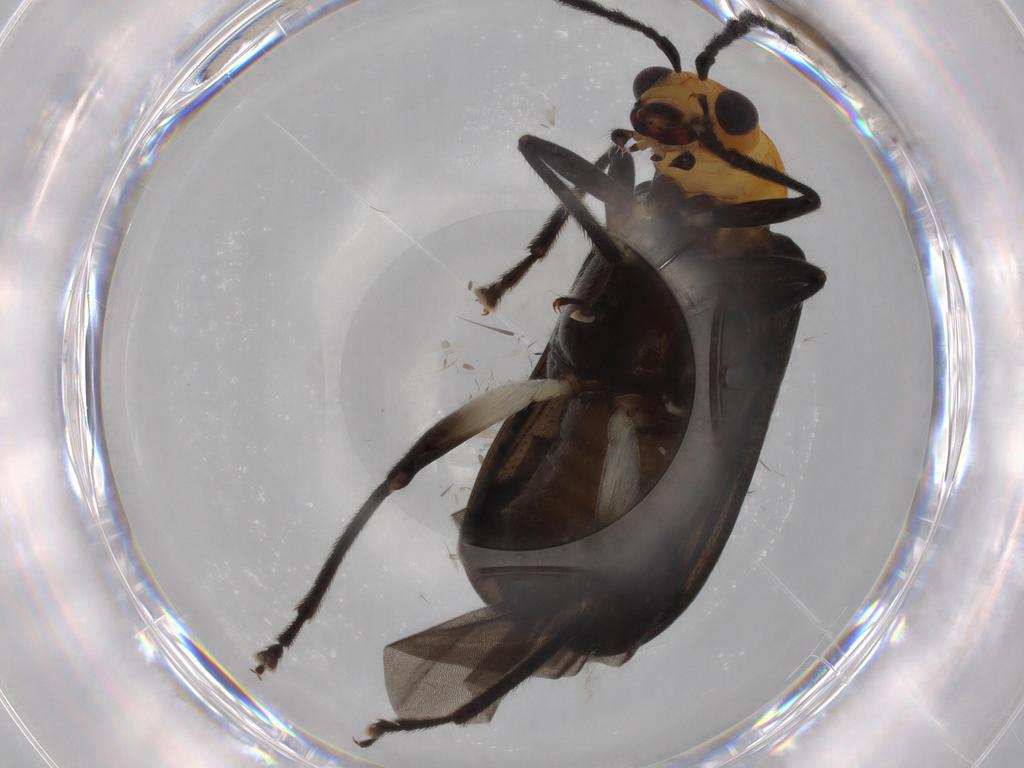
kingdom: Animalia
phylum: Arthropoda
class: Insecta
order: Coleoptera
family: Chrysomelidae
